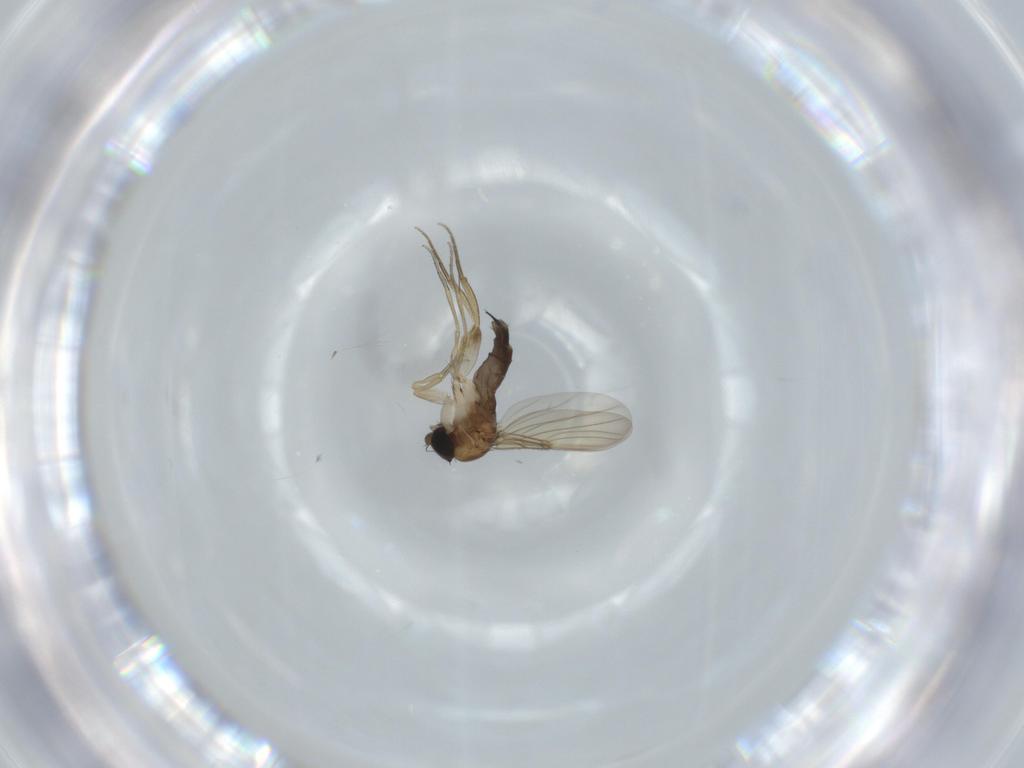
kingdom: Animalia
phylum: Arthropoda
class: Insecta
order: Diptera
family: Phoridae
